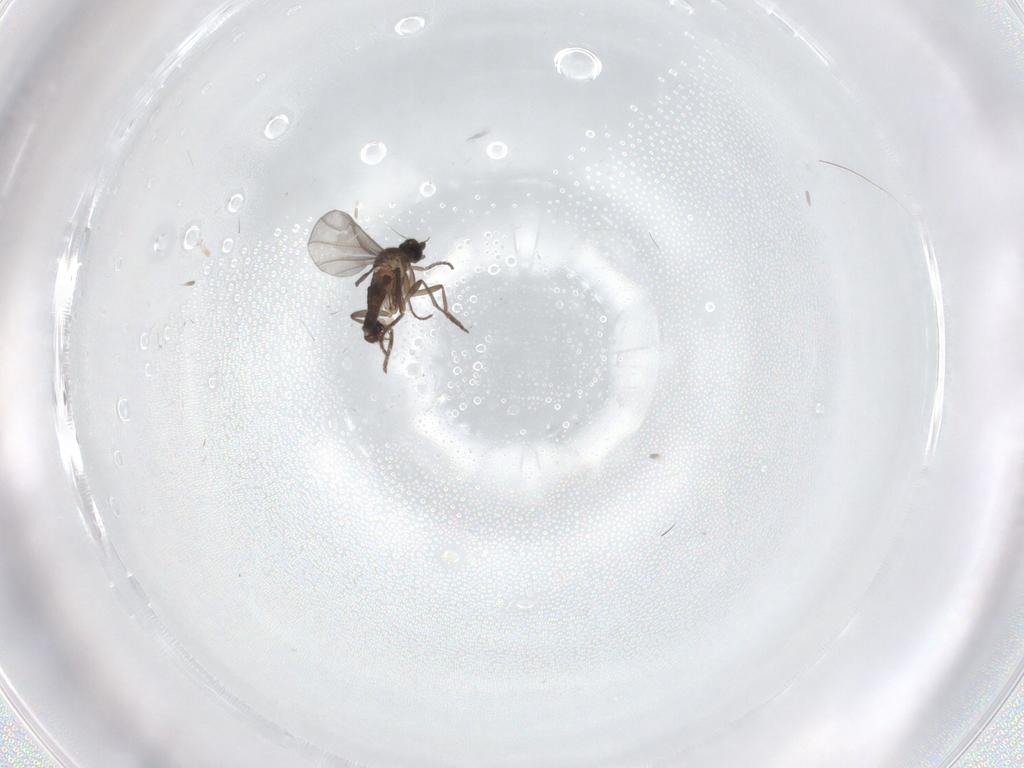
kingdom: Animalia
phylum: Arthropoda
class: Insecta
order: Diptera
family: Phoridae
